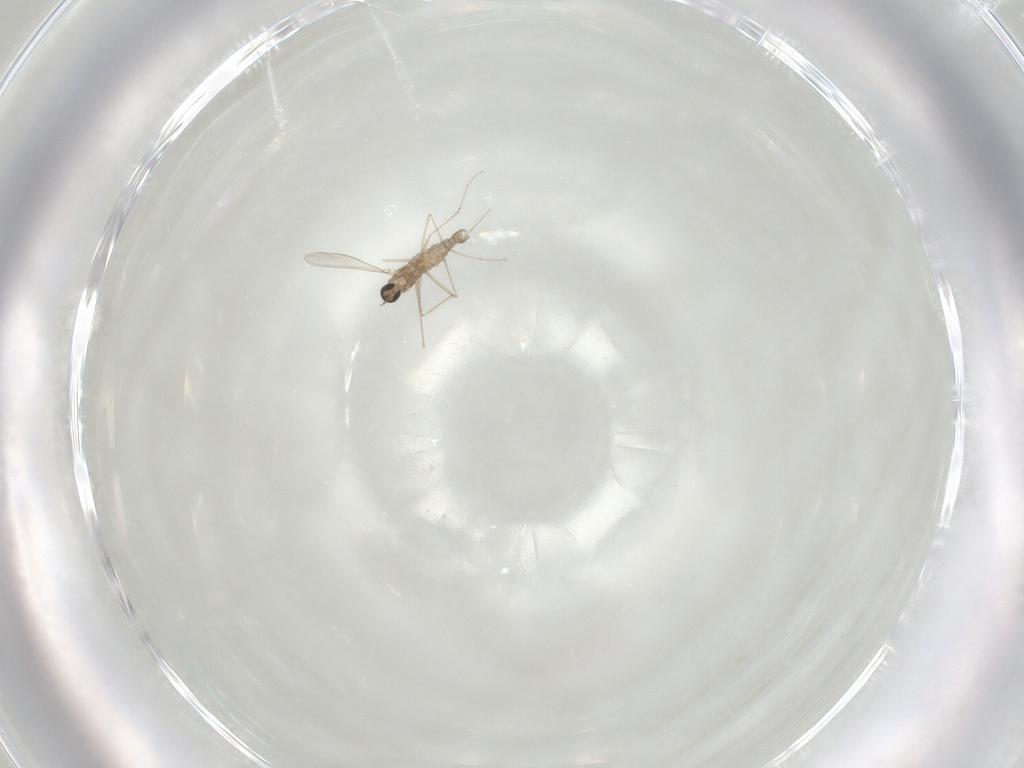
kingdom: Animalia
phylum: Arthropoda
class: Insecta
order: Diptera
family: Cecidomyiidae
